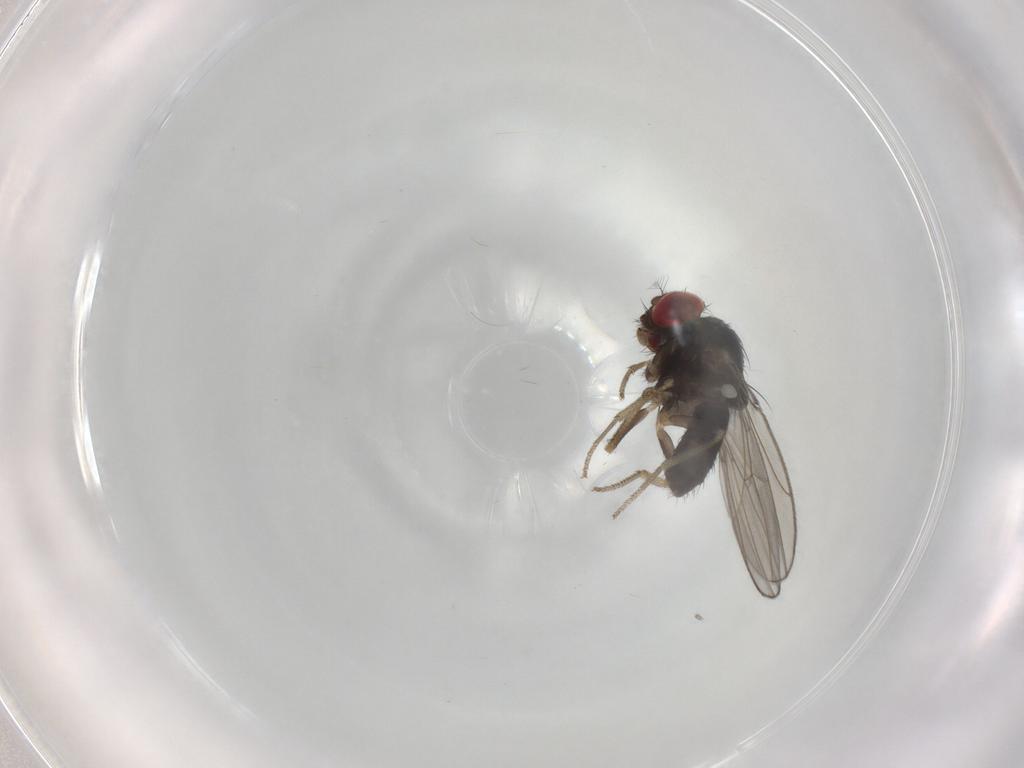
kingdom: Animalia
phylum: Arthropoda
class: Insecta
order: Diptera
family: Drosophilidae
